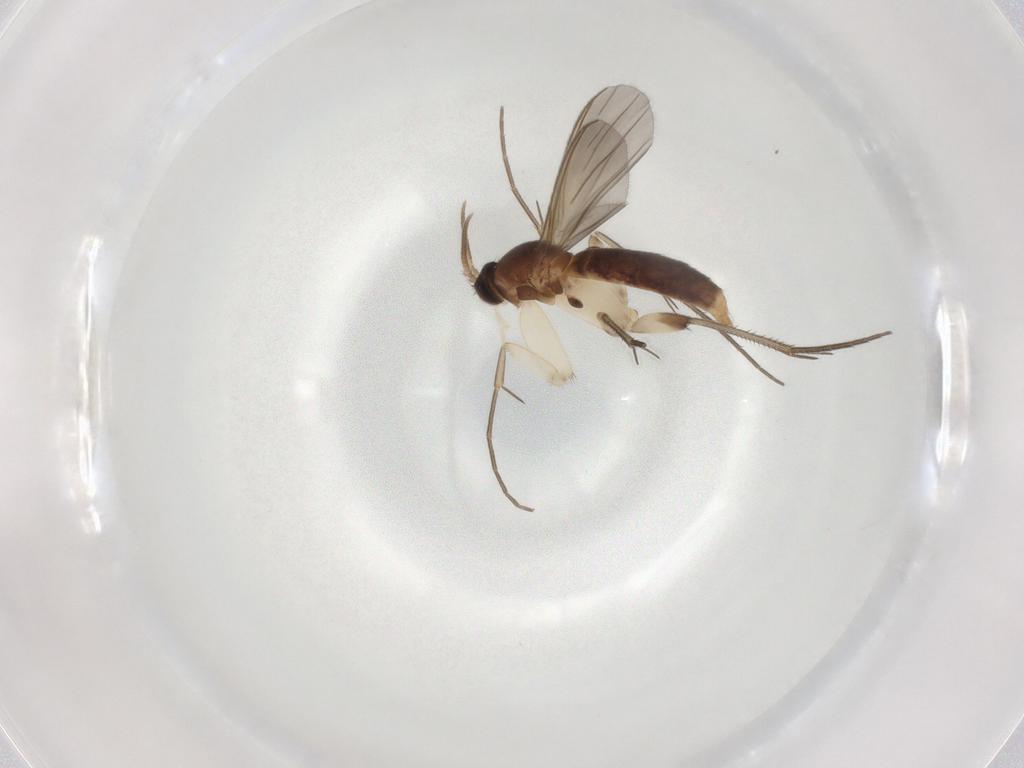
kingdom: Animalia
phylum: Arthropoda
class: Insecta
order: Diptera
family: Mycetophilidae
